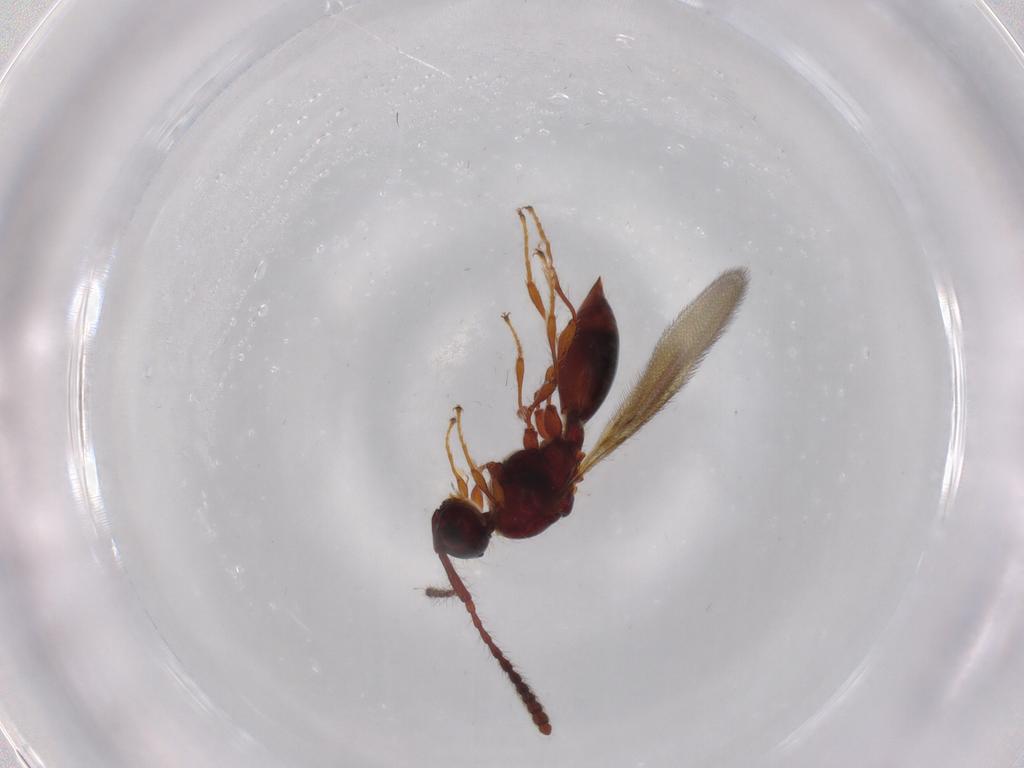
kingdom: Animalia
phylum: Arthropoda
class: Insecta
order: Hymenoptera
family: Diapriidae
